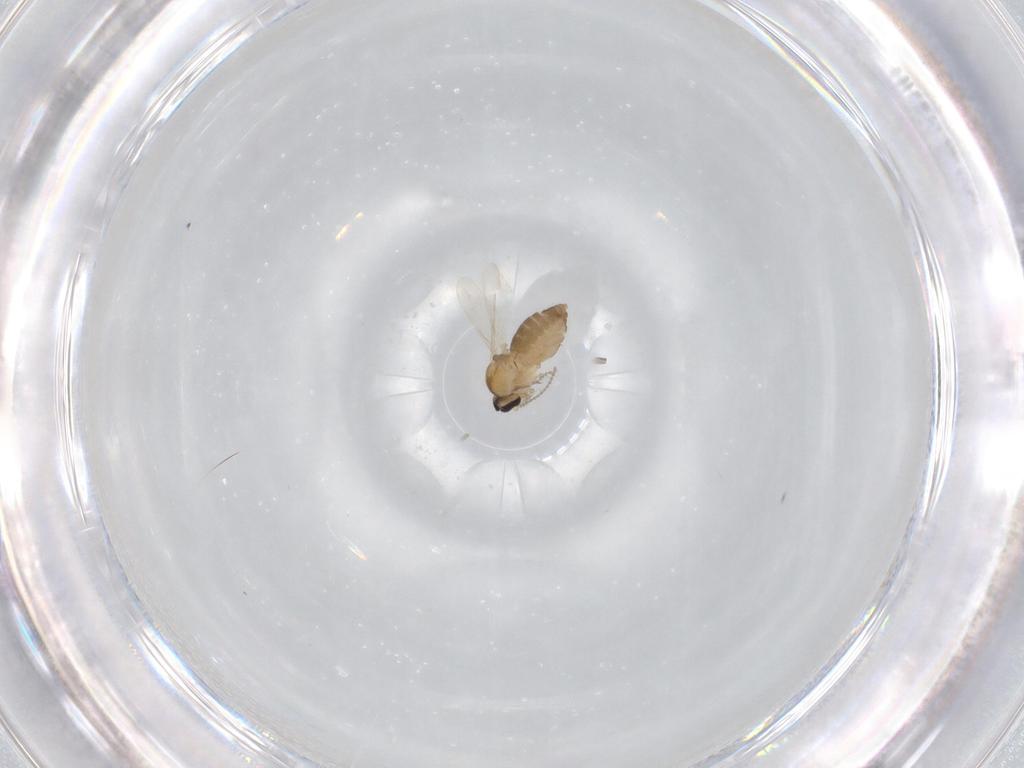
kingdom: Animalia
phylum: Arthropoda
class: Insecta
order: Diptera
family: Ceratopogonidae
